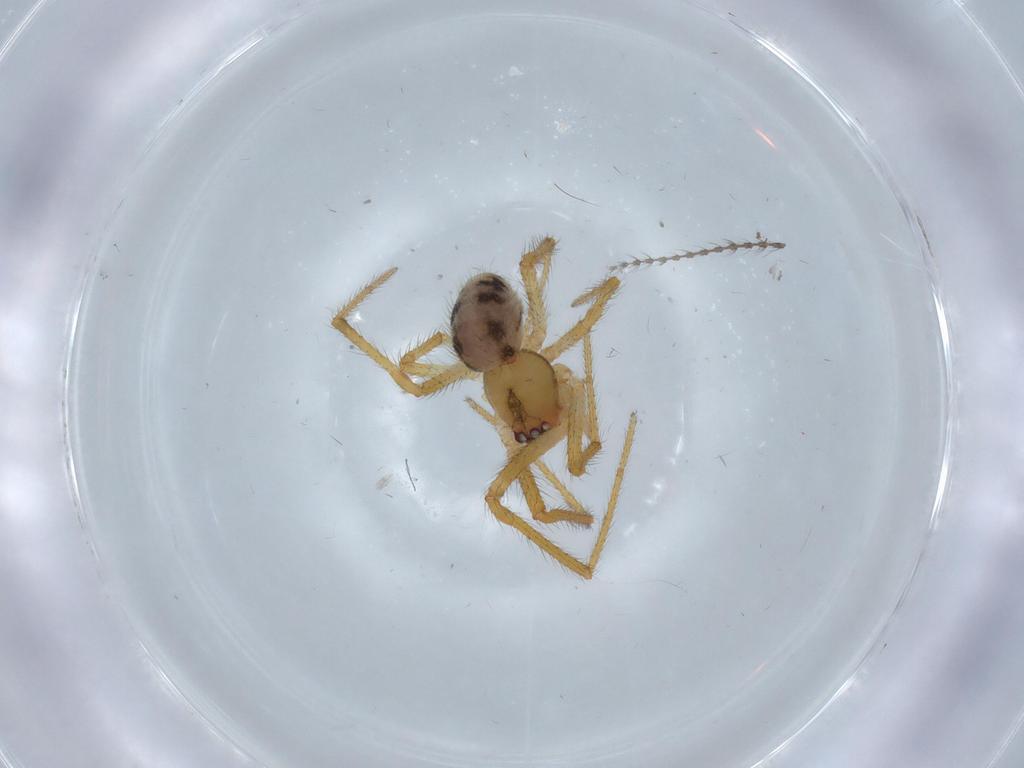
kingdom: Animalia
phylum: Arthropoda
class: Arachnida
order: Araneae
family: Theridiidae
